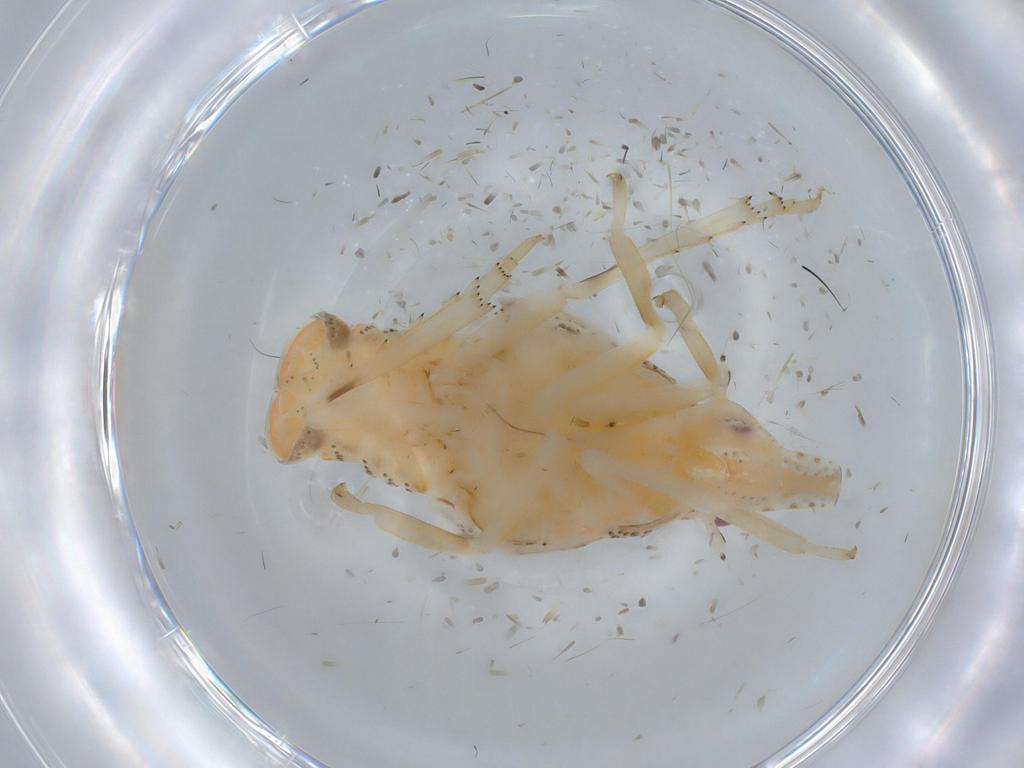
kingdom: Animalia
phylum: Arthropoda
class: Insecta
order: Hemiptera
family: Flatidae
